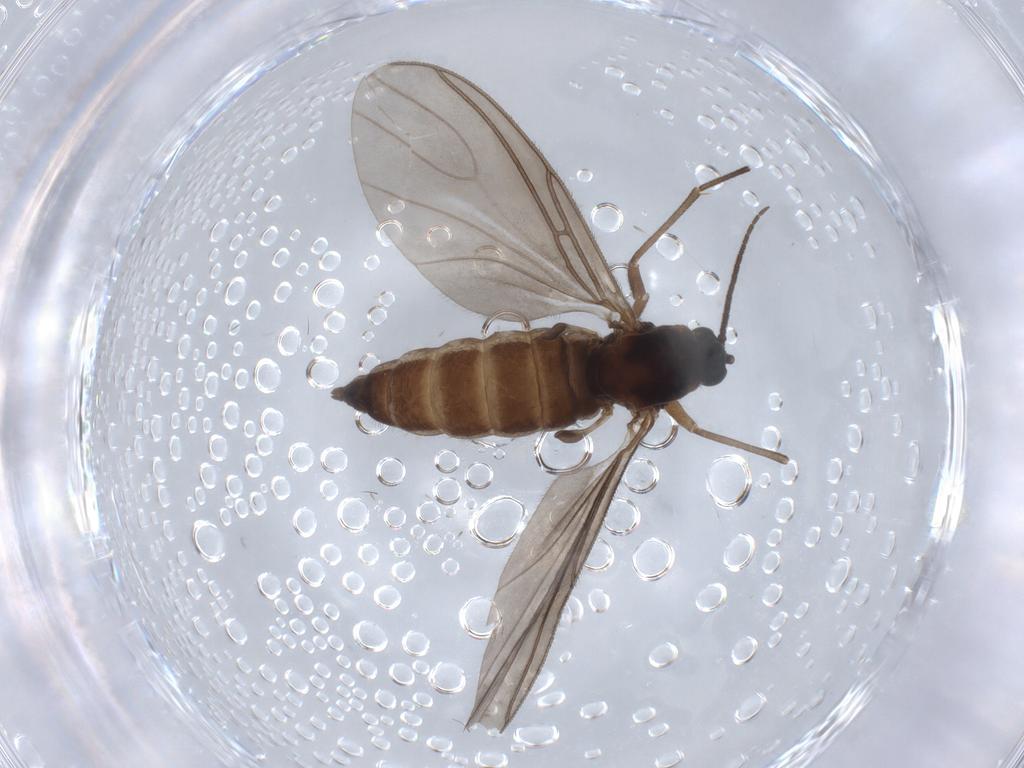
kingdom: Animalia
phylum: Arthropoda
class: Insecta
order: Diptera
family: Sciaridae
